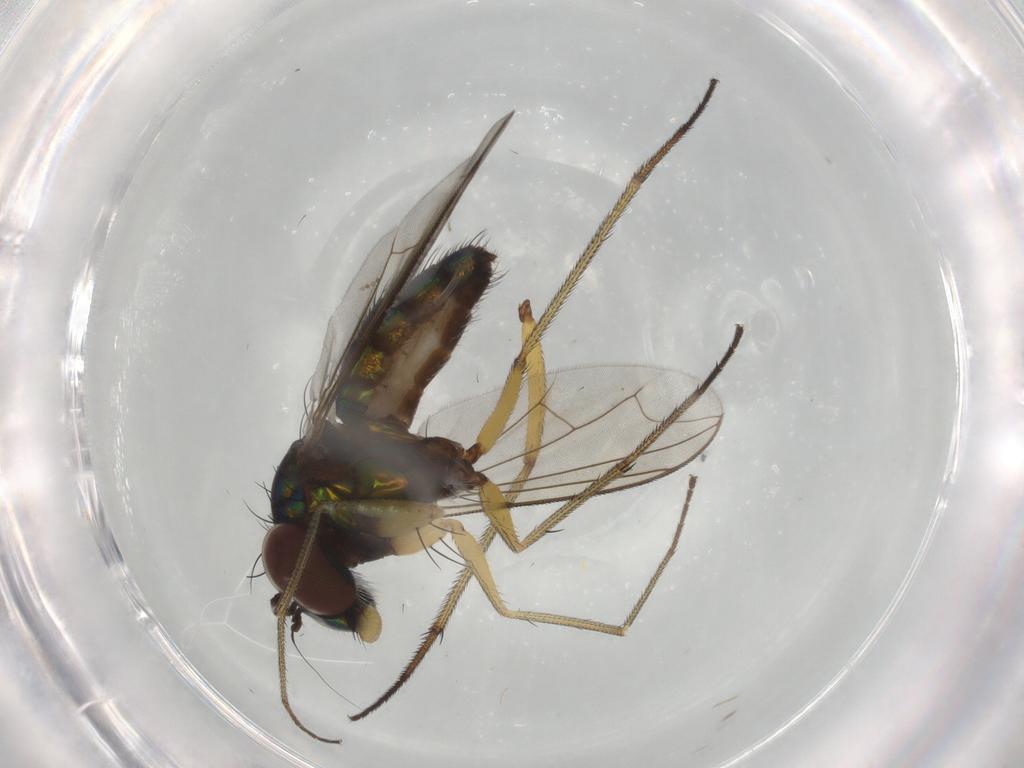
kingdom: Animalia
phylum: Arthropoda
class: Insecta
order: Diptera
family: Dolichopodidae
